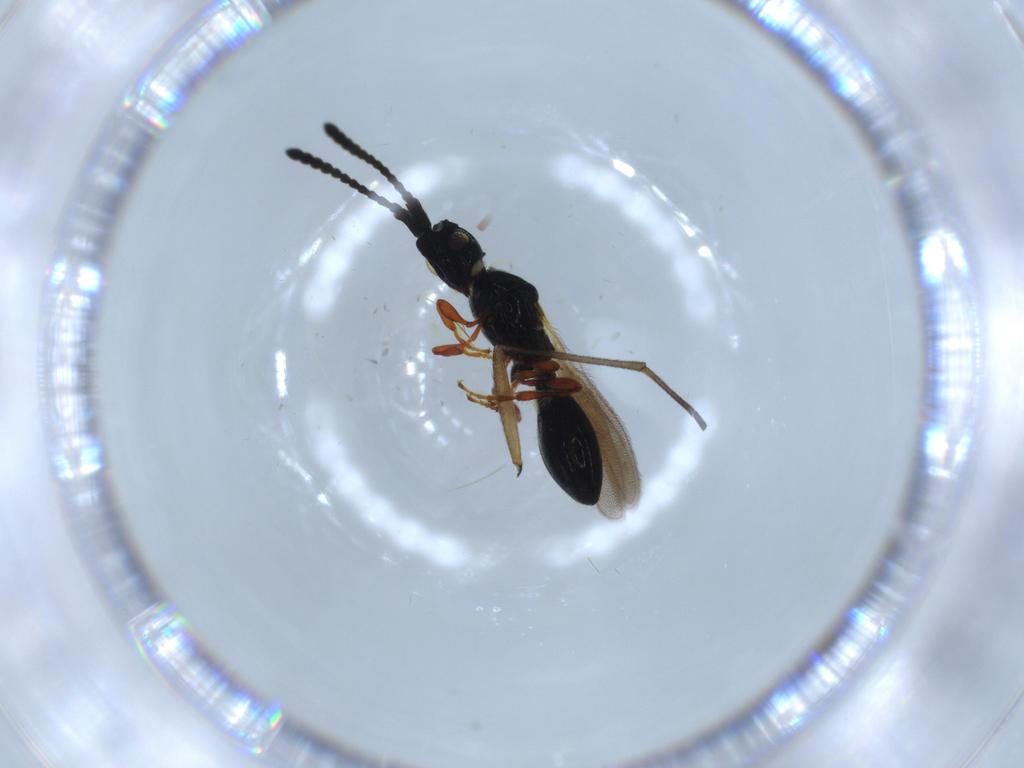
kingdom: Animalia
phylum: Arthropoda
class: Insecta
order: Hymenoptera
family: Diapriidae
